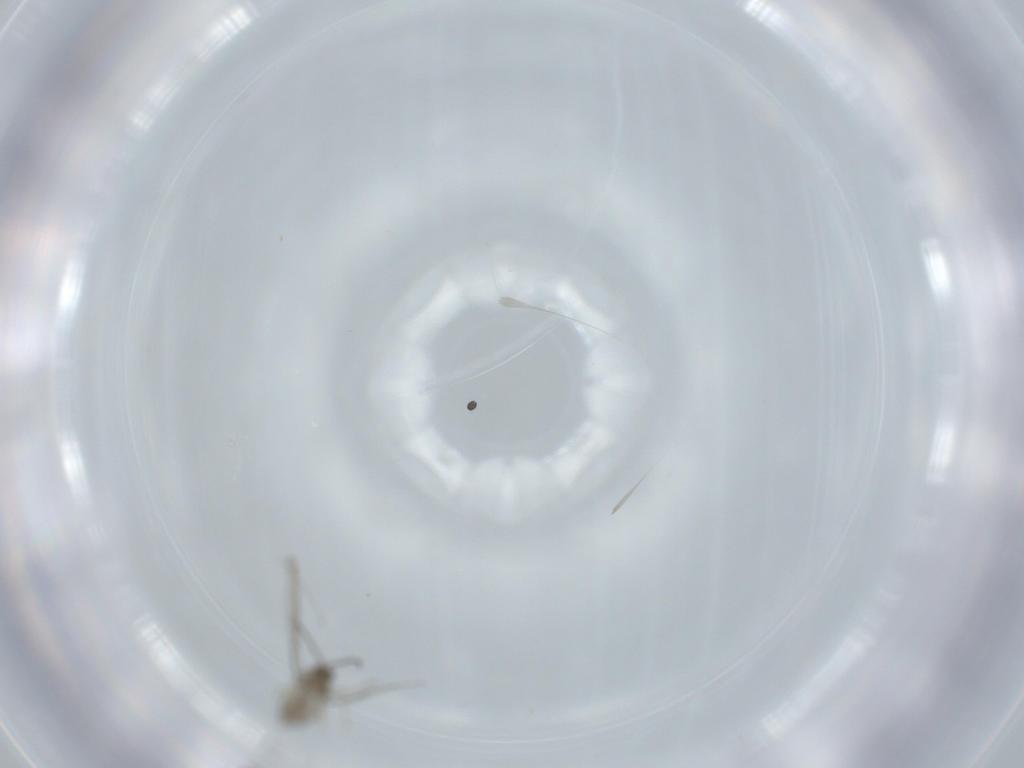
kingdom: Animalia
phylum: Arthropoda
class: Insecta
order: Diptera
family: Cecidomyiidae
